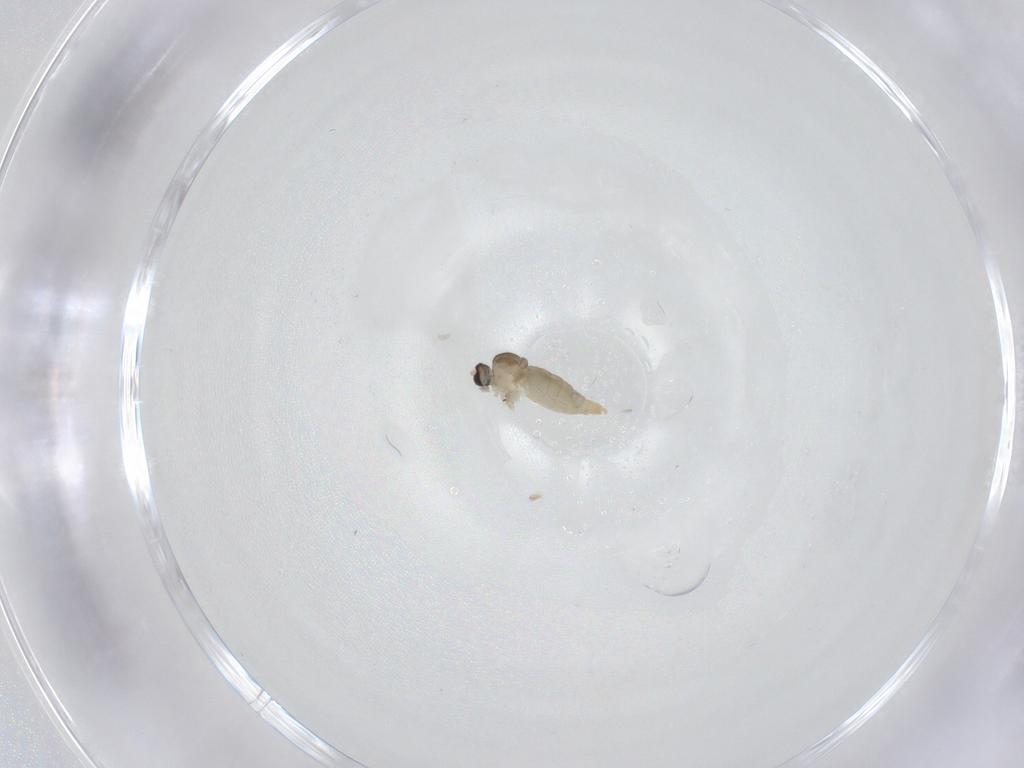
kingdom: Animalia
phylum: Arthropoda
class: Insecta
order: Diptera
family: Cecidomyiidae
